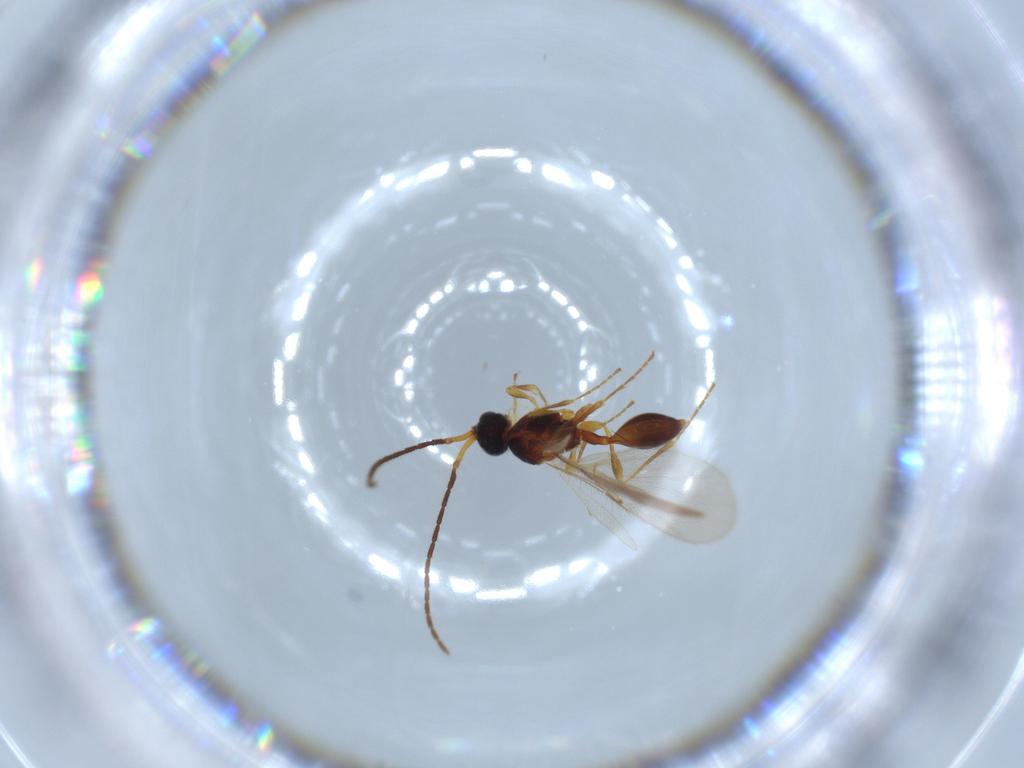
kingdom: Animalia
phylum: Arthropoda
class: Insecta
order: Hymenoptera
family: Diapriidae
